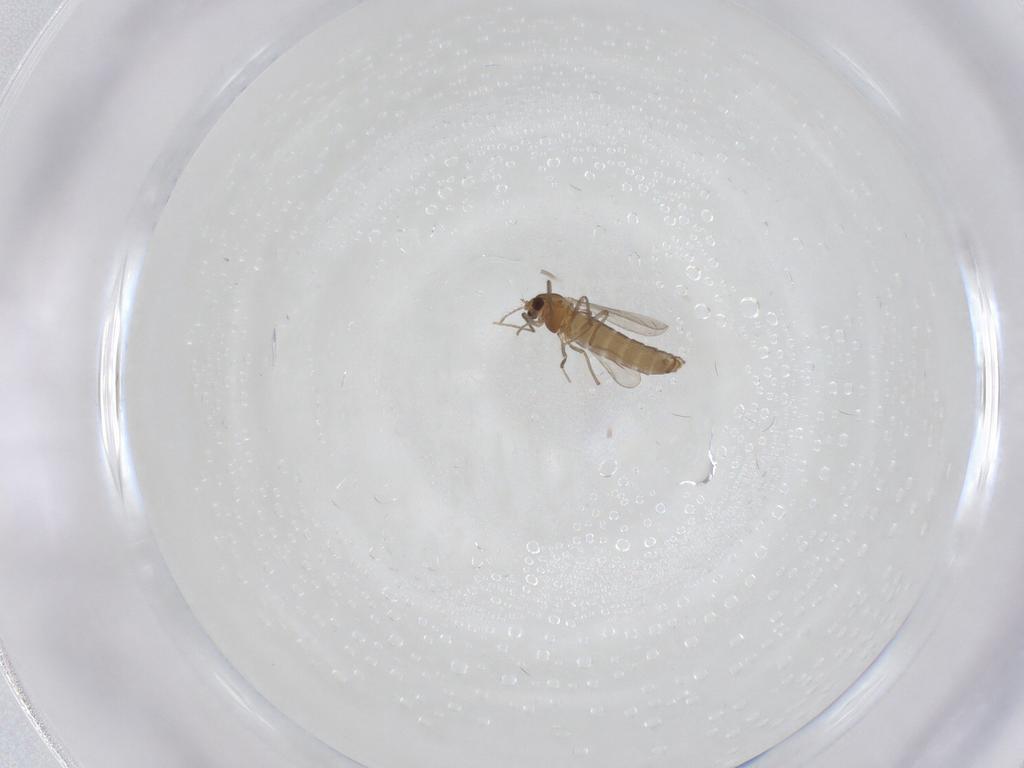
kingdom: Animalia
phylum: Arthropoda
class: Insecta
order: Diptera
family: Chironomidae
